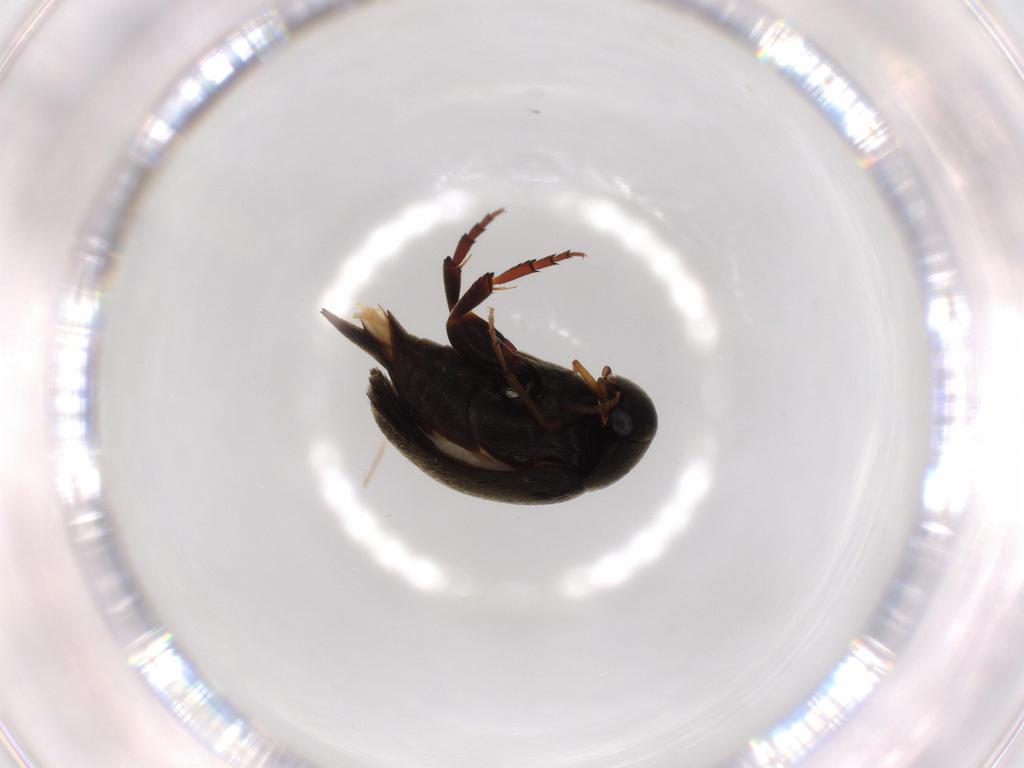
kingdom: Animalia
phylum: Arthropoda
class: Insecta
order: Coleoptera
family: Mordellidae
